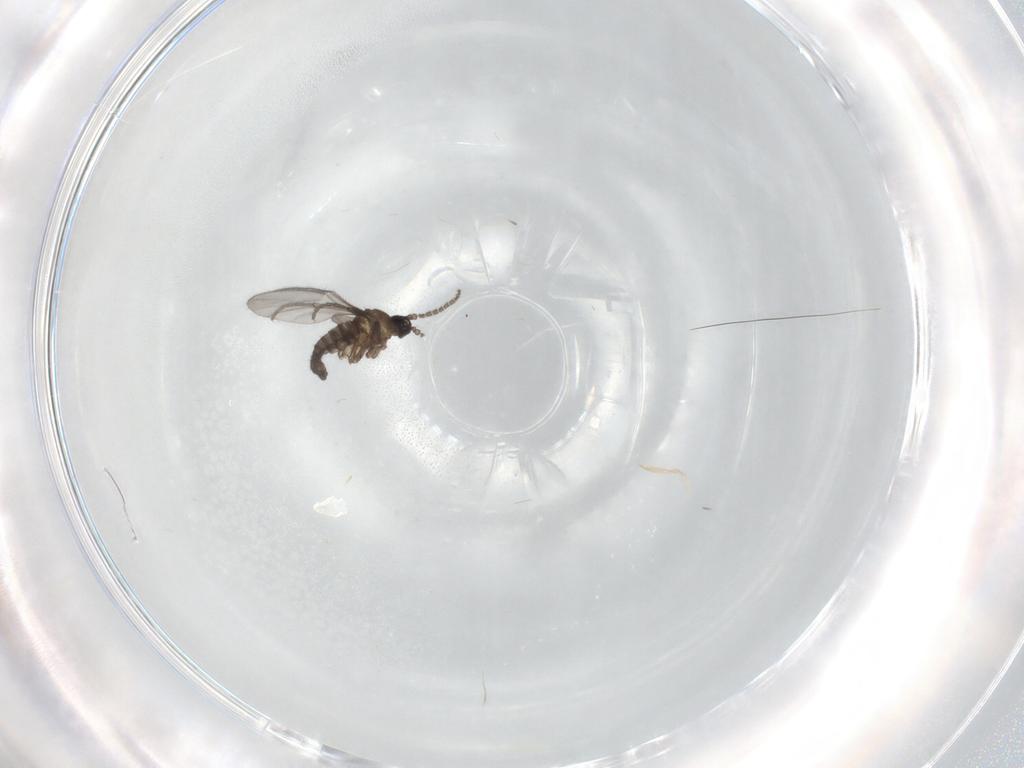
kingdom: Animalia
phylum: Arthropoda
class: Insecta
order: Diptera
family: Sciaridae
